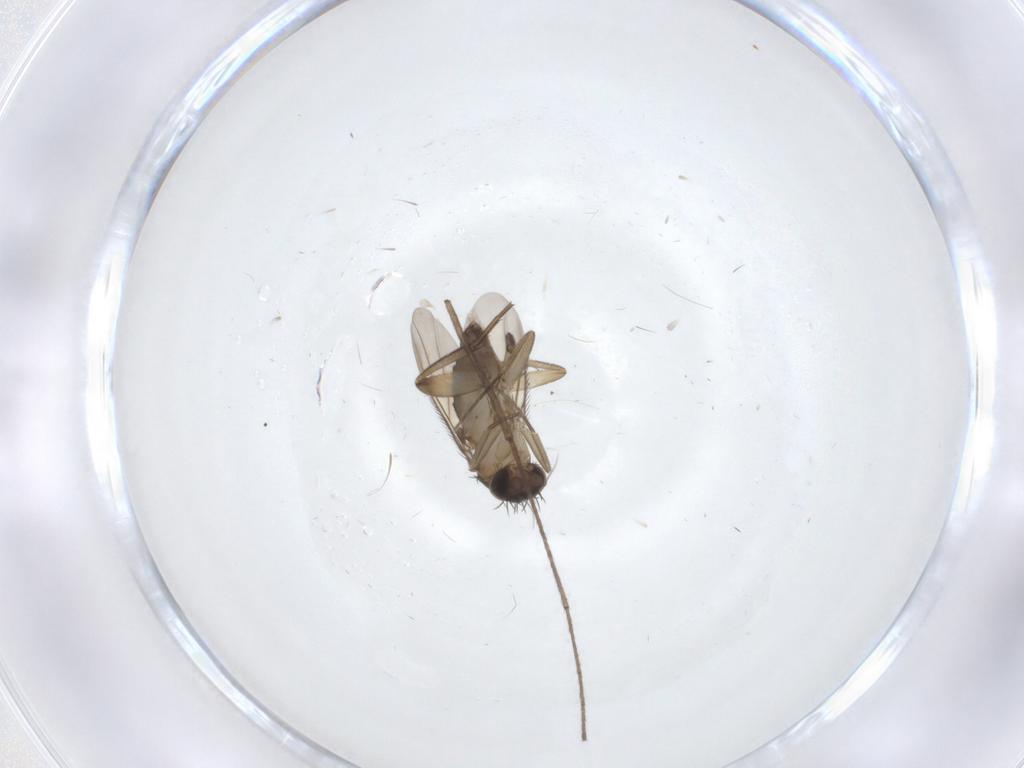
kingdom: Animalia
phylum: Arthropoda
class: Insecta
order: Diptera
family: Phoridae
